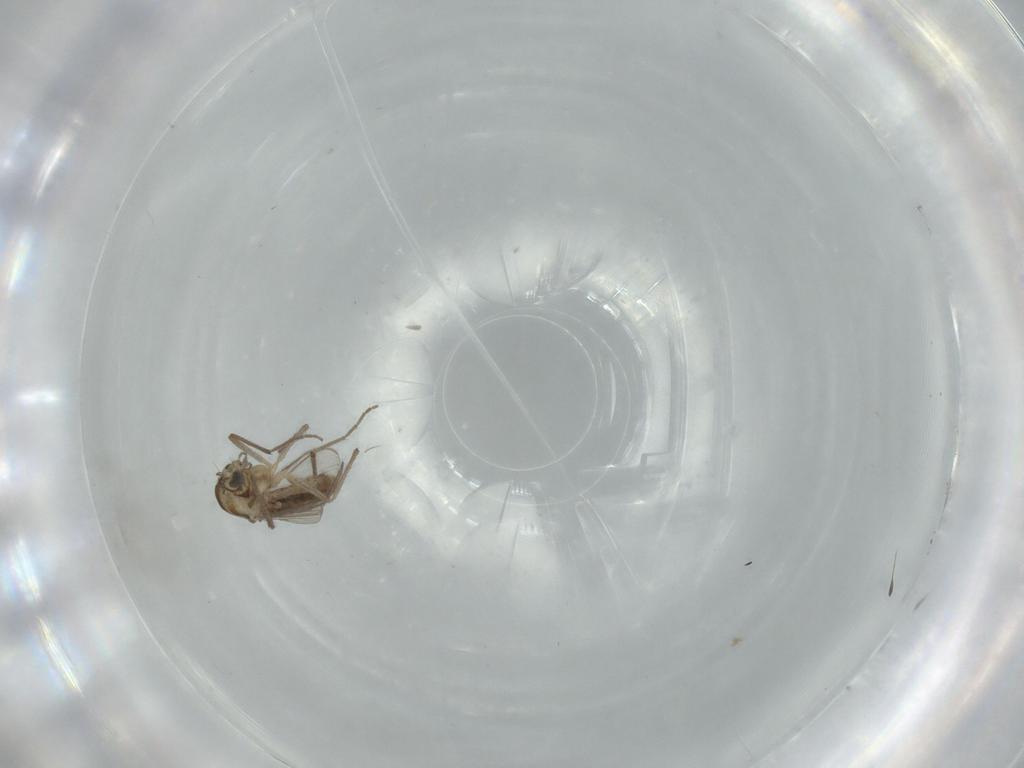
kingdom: Animalia
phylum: Arthropoda
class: Insecta
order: Diptera
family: Chironomidae
